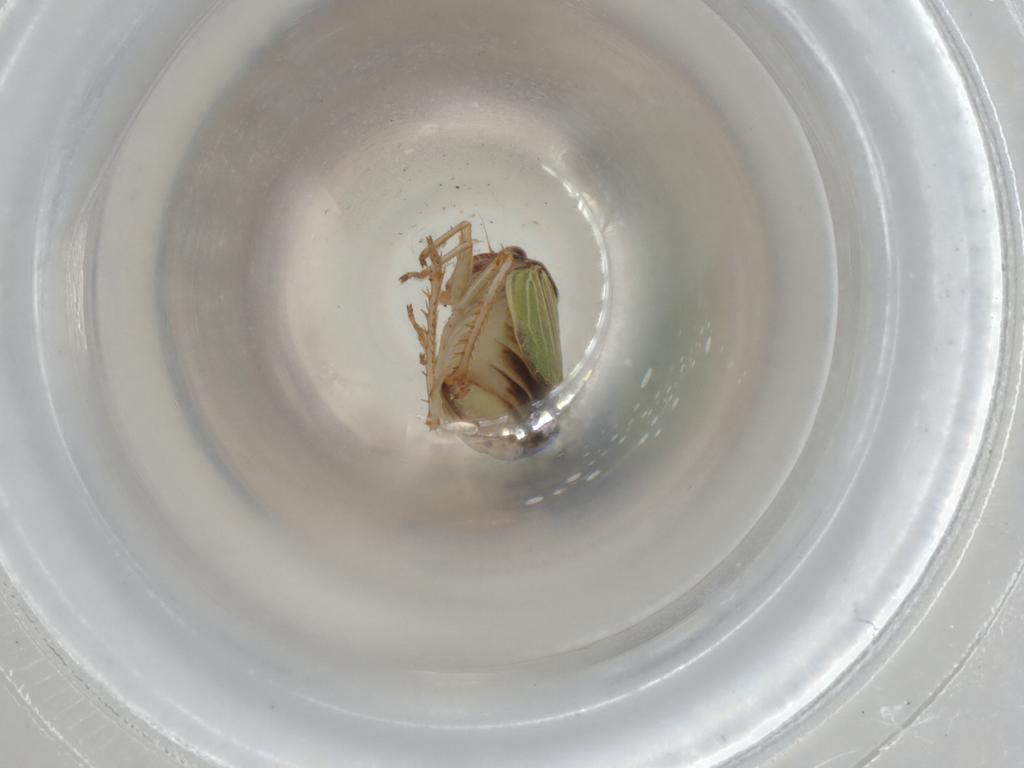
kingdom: Animalia
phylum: Arthropoda
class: Insecta
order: Hemiptera
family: Cicadellidae
